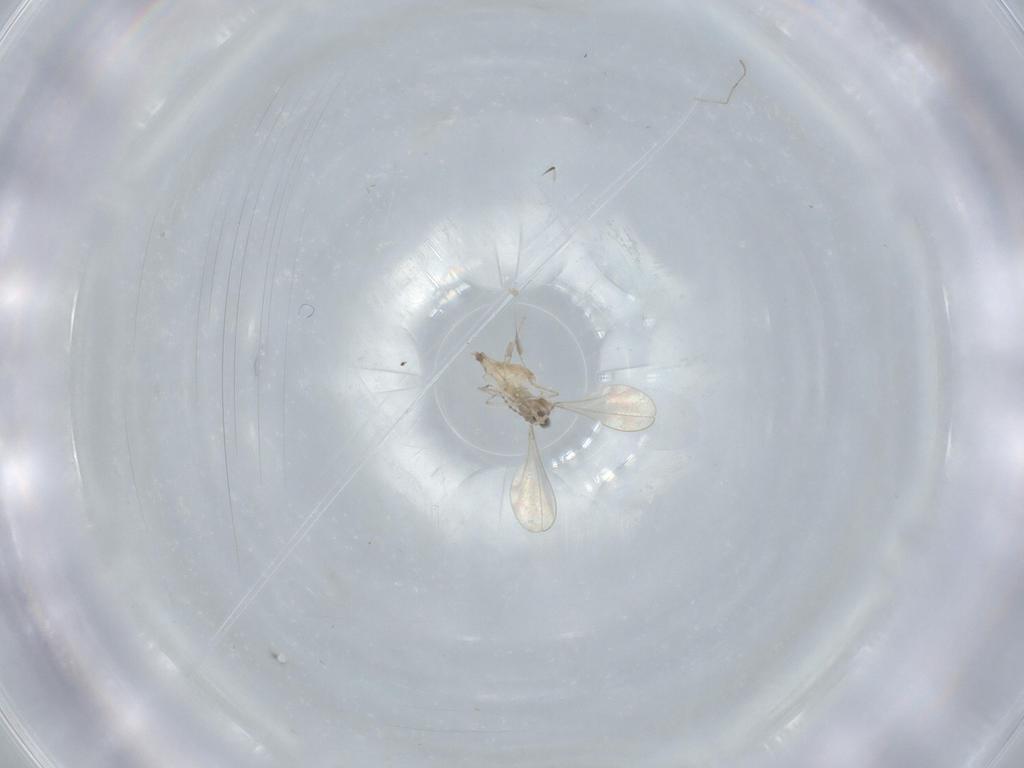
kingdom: Animalia
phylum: Arthropoda
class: Insecta
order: Diptera
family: Cecidomyiidae
